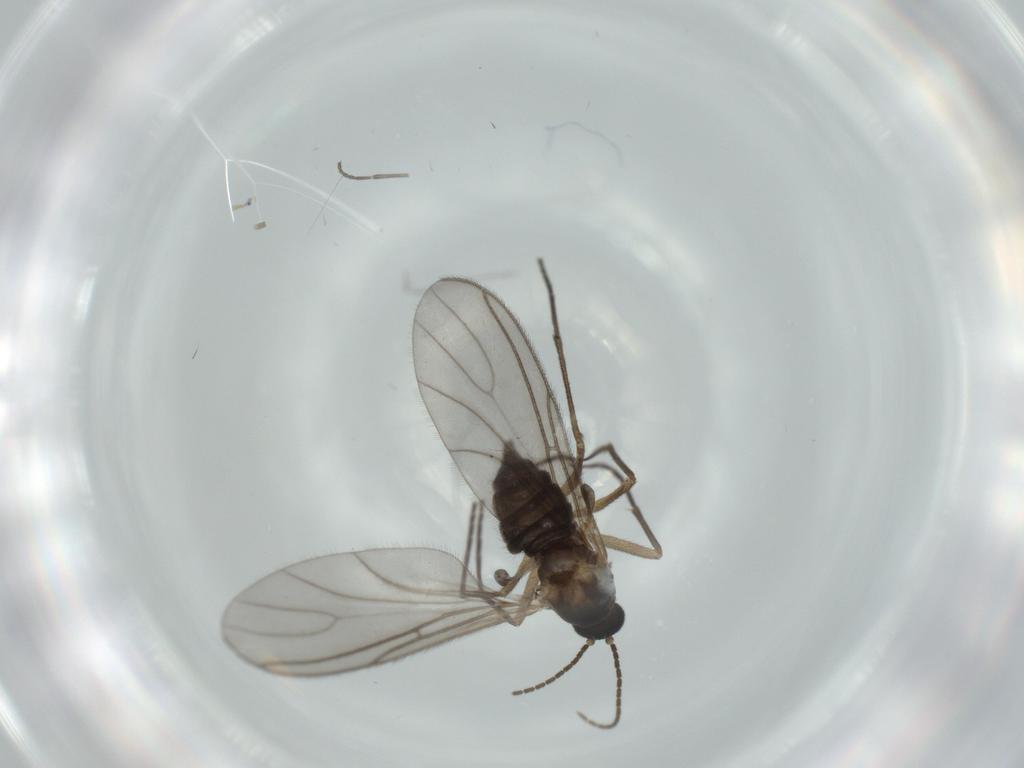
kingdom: Animalia
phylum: Arthropoda
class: Insecta
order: Diptera
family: Sciaridae
